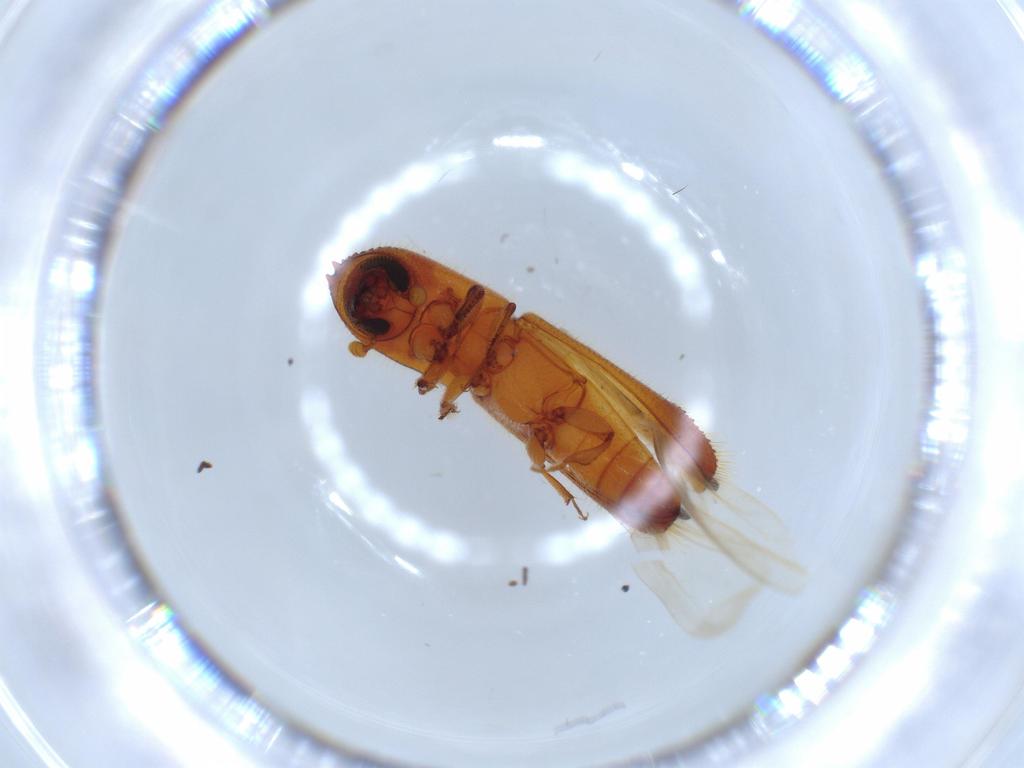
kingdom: Animalia
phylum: Arthropoda
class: Insecta
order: Coleoptera
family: Curculionidae
